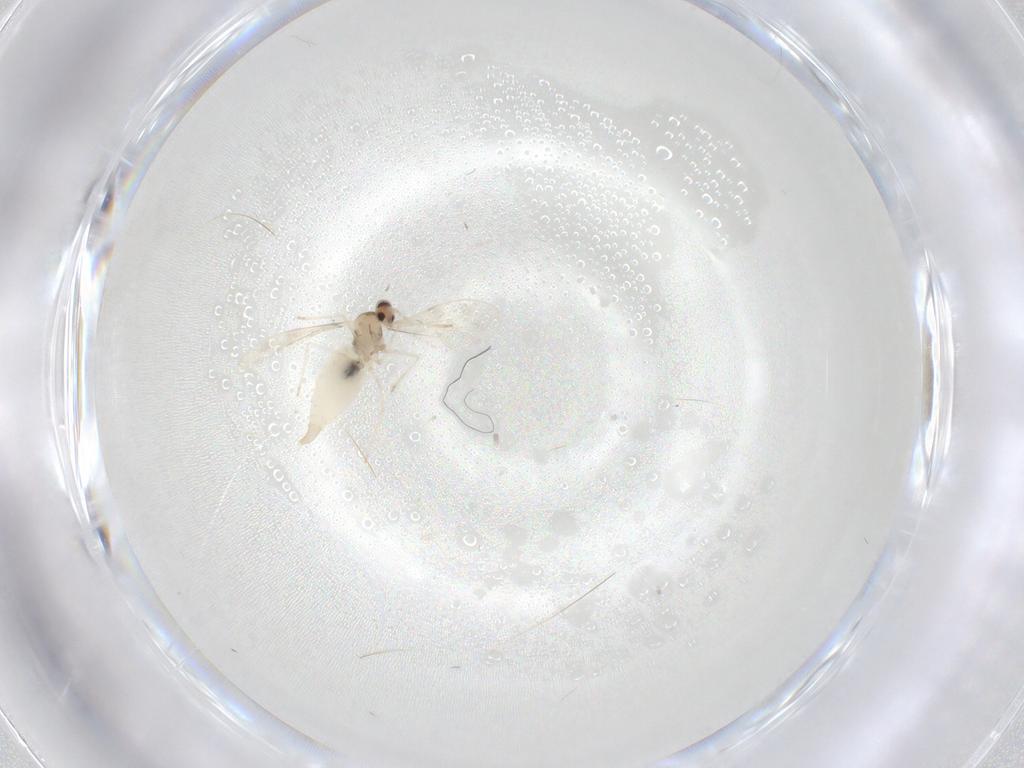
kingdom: Animalia
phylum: Arthropoda
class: Insecta
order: Diptera
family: Cecidomyiidae
